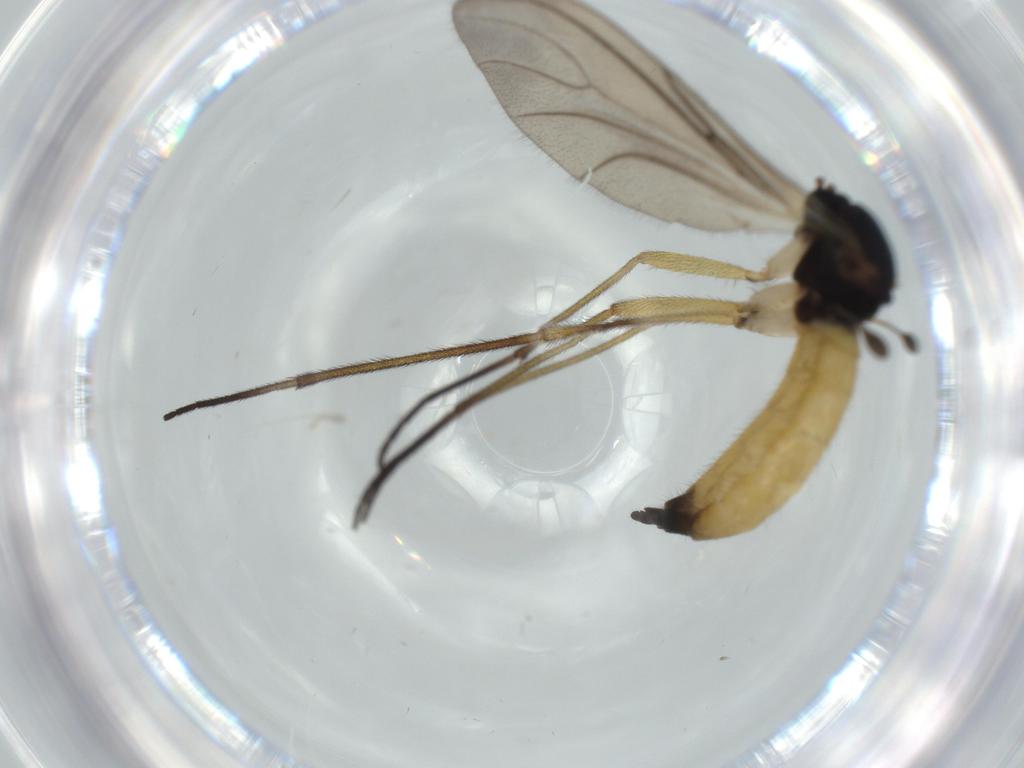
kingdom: Animalia
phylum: Arthropoda
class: Insecta
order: Diptera
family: Sciaridae
